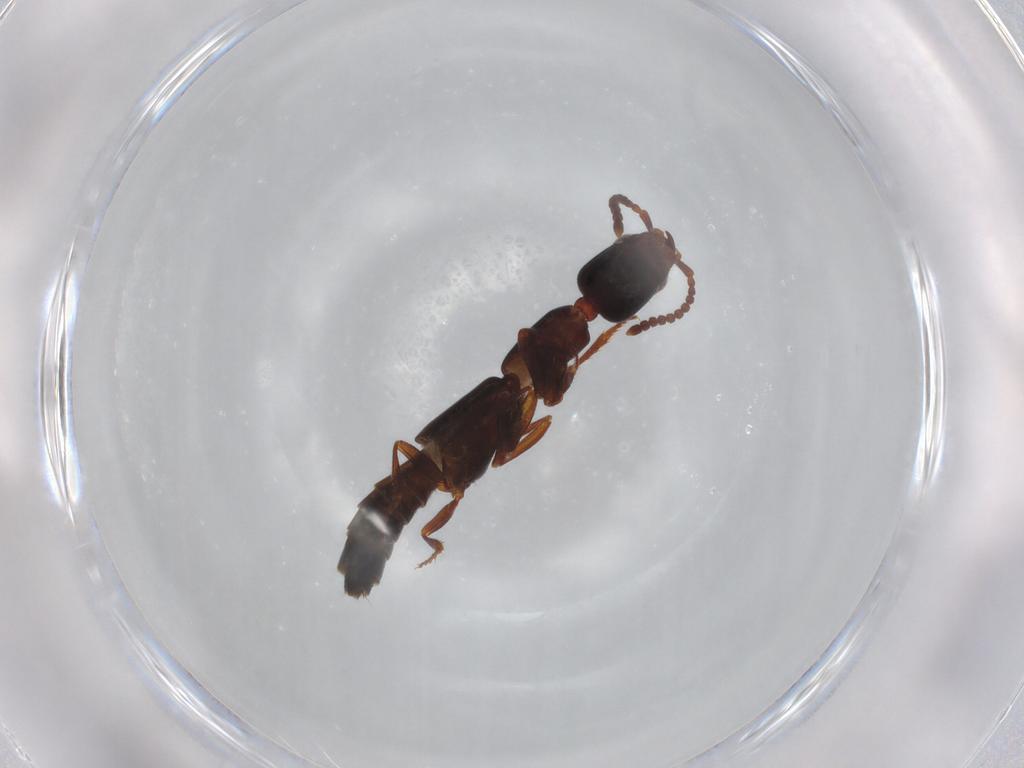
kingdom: Animalia
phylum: Arthropoda
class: Insecta
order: Coleoptera
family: Staphylinidae
